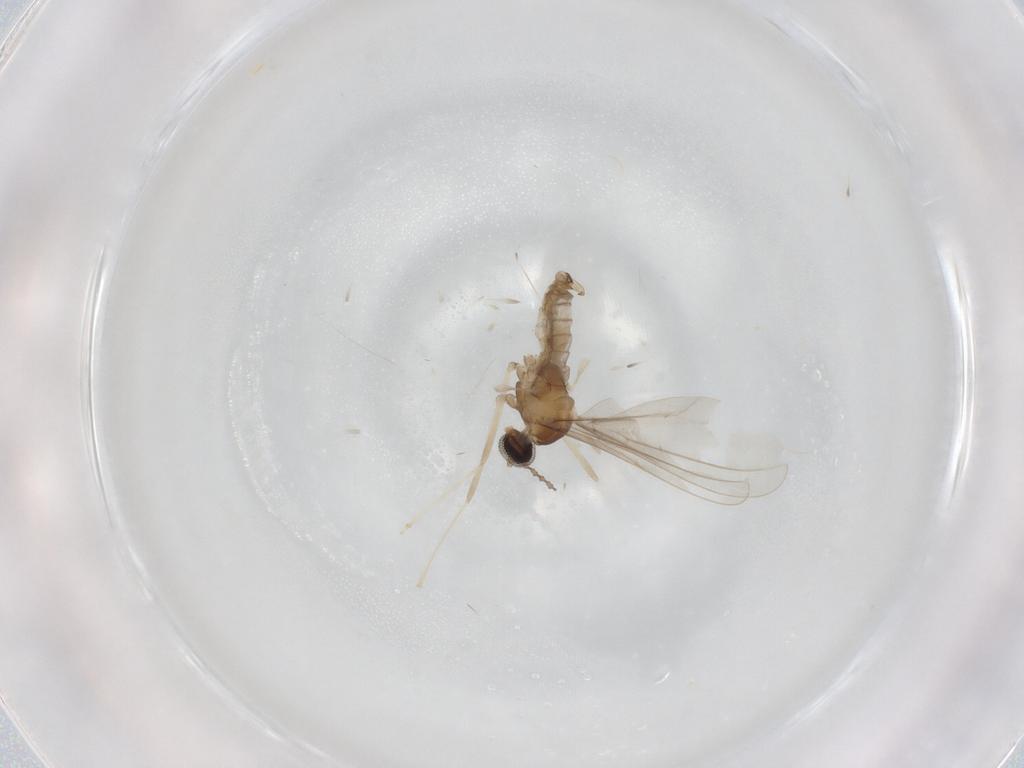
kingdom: Animalia
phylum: Arthropoda
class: Insecta
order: Diptera
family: Cecidomyiidae
